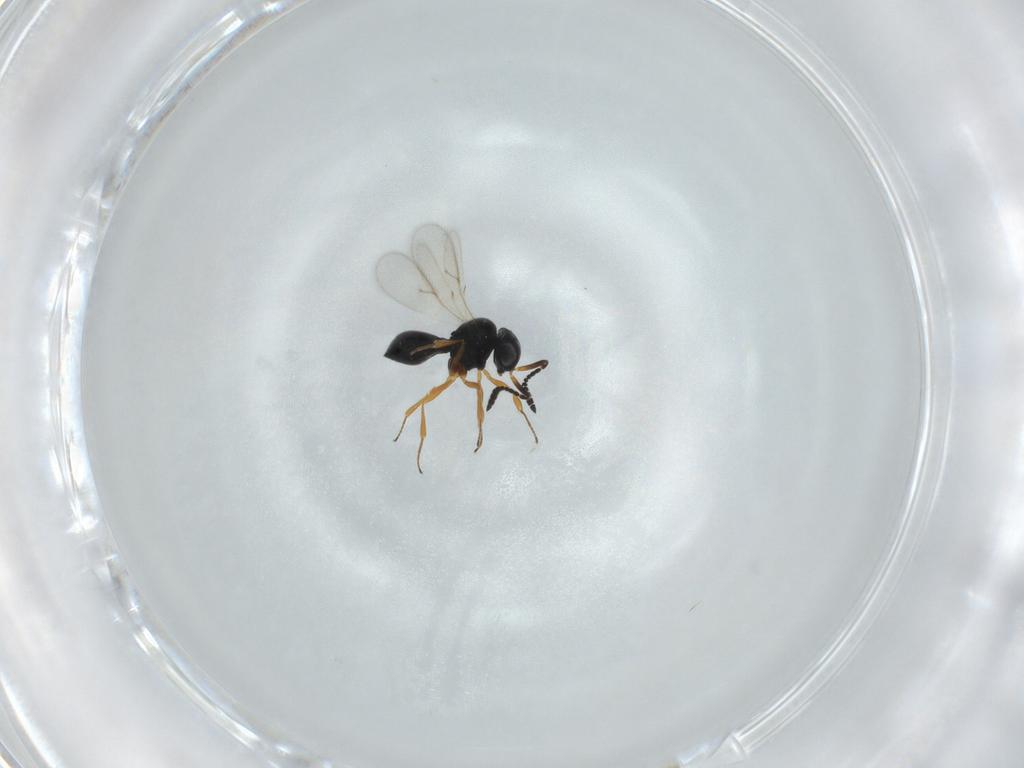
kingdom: Animalia
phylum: Arthropoda
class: Insecta
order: Hymenoptera
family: Scelionidae
